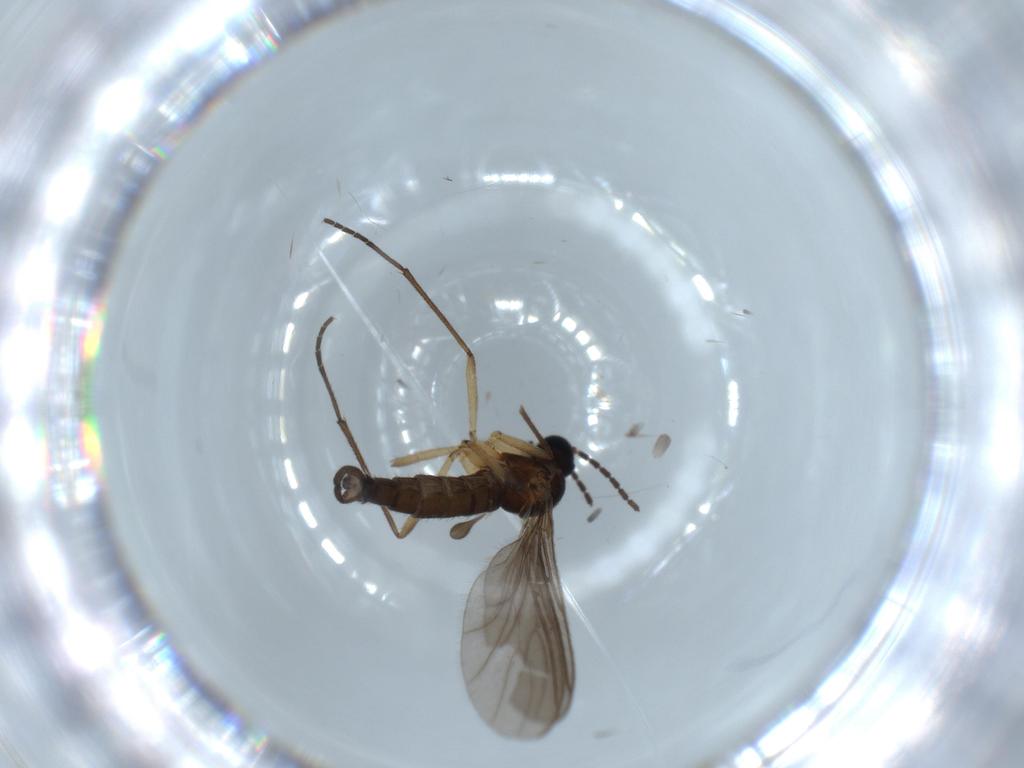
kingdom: Animalia
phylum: Arthropoda
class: Insecta
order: Diptera
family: Sciaridae
